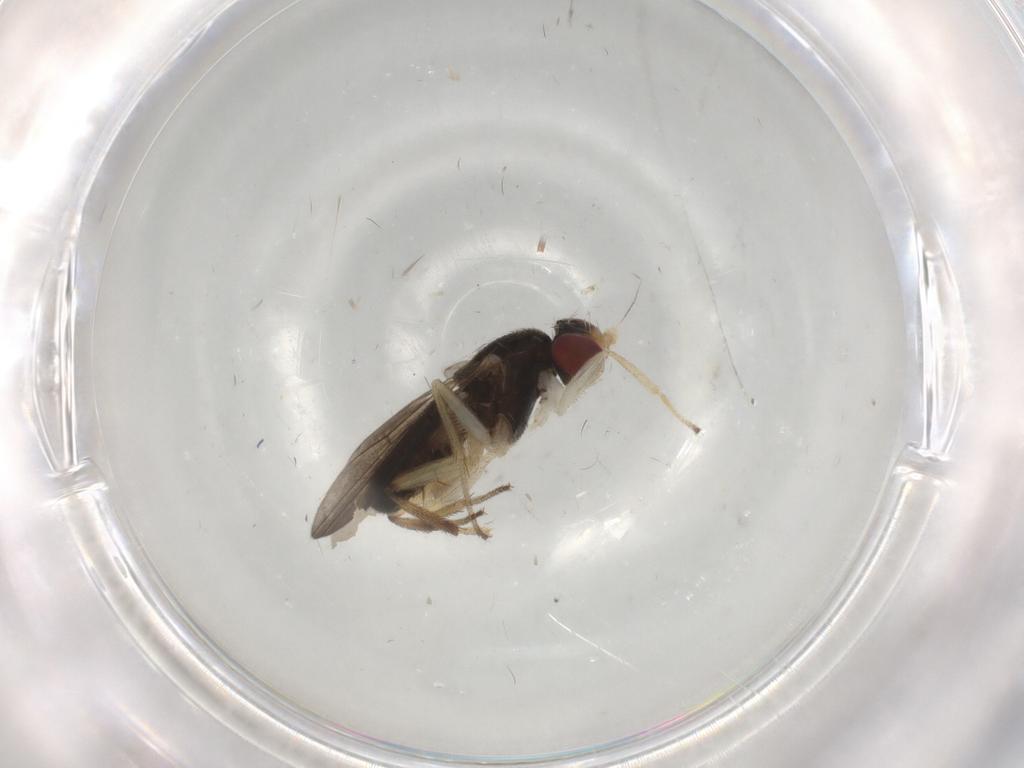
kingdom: Animalia
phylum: Arthropoda
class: Insecta
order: Diptera
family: Clusiidae
